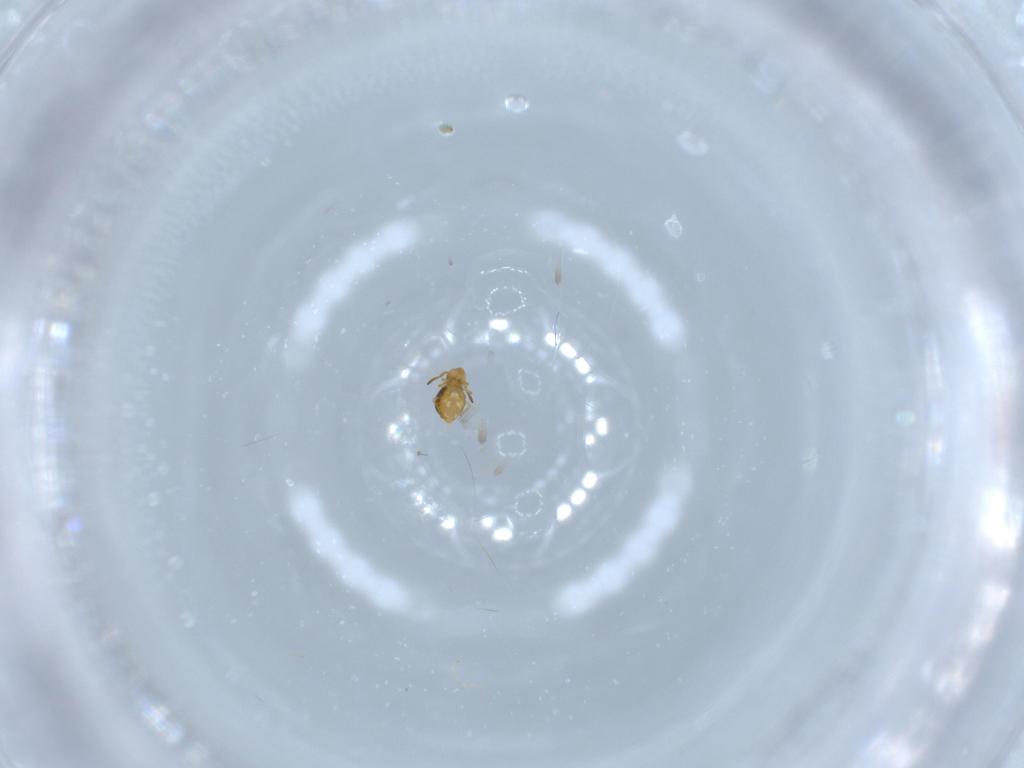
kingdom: Animalia
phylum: Arthropoda
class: Collembola
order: Symphypleona
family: Katiannidae
